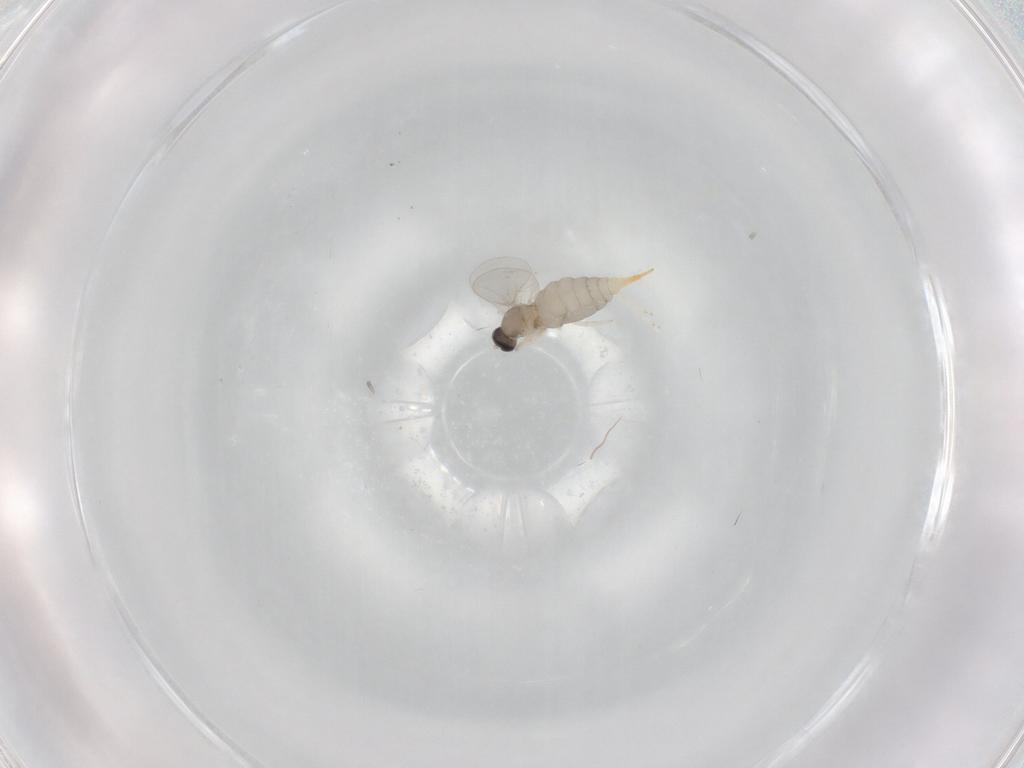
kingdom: Animalia
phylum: Arthropoda
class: Insecta
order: Diptera
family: Cecidomyiidae
